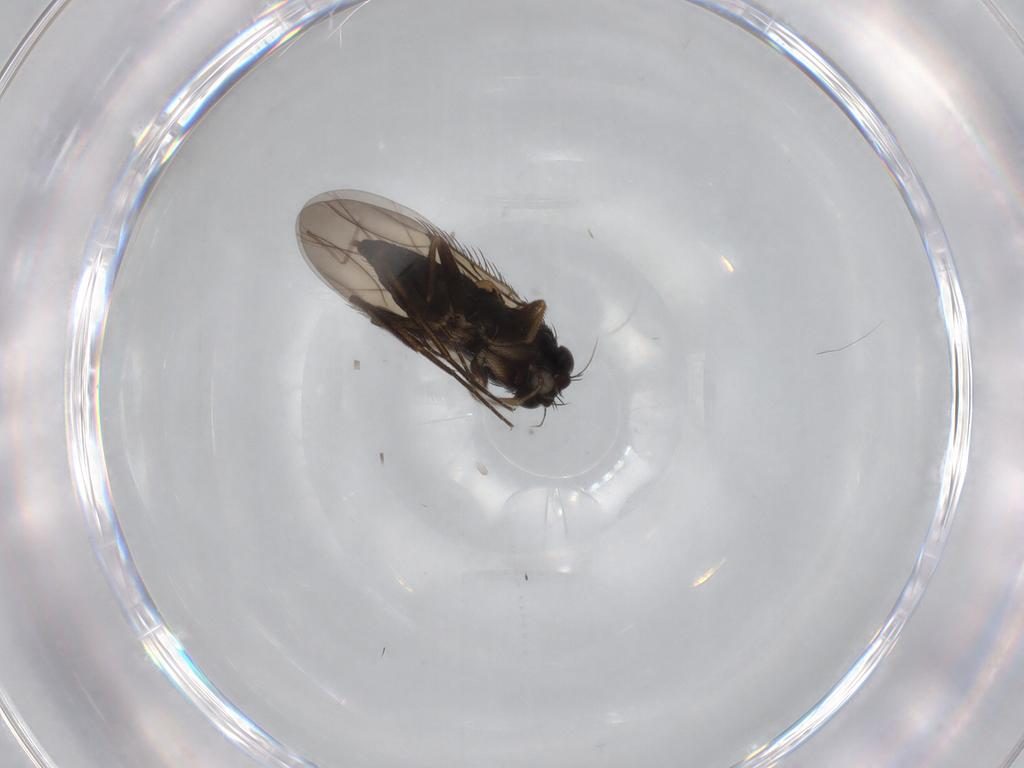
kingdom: Animalia
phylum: Arthropoda
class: Insecta
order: Diptera
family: Phoridae
